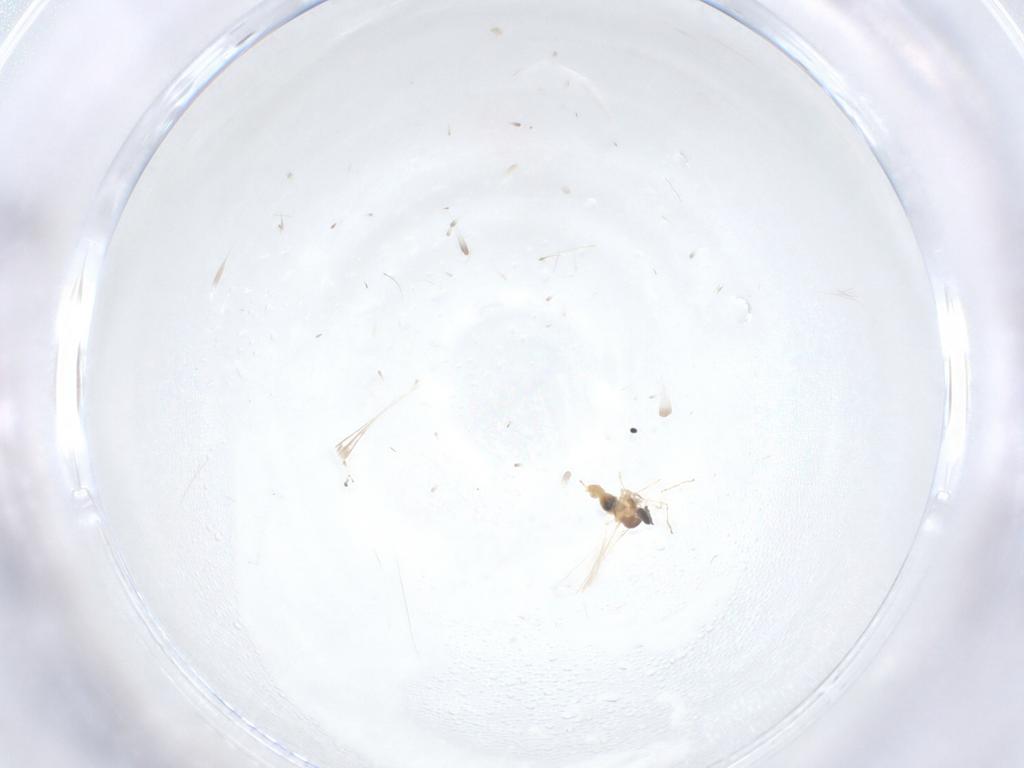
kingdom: Animalia
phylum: Arthropoda
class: Insecta
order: Diptera
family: Cecidomyiidae
